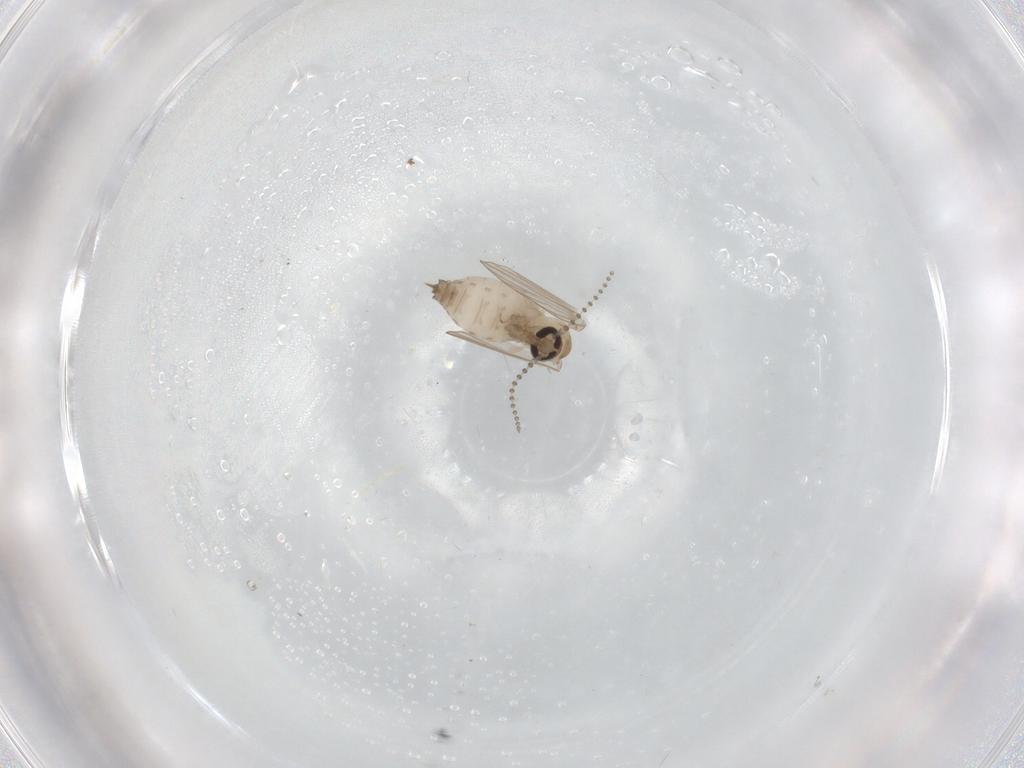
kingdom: Animalia
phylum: Arthropoda
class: Insecta
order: Diptera
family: Psychodidae
